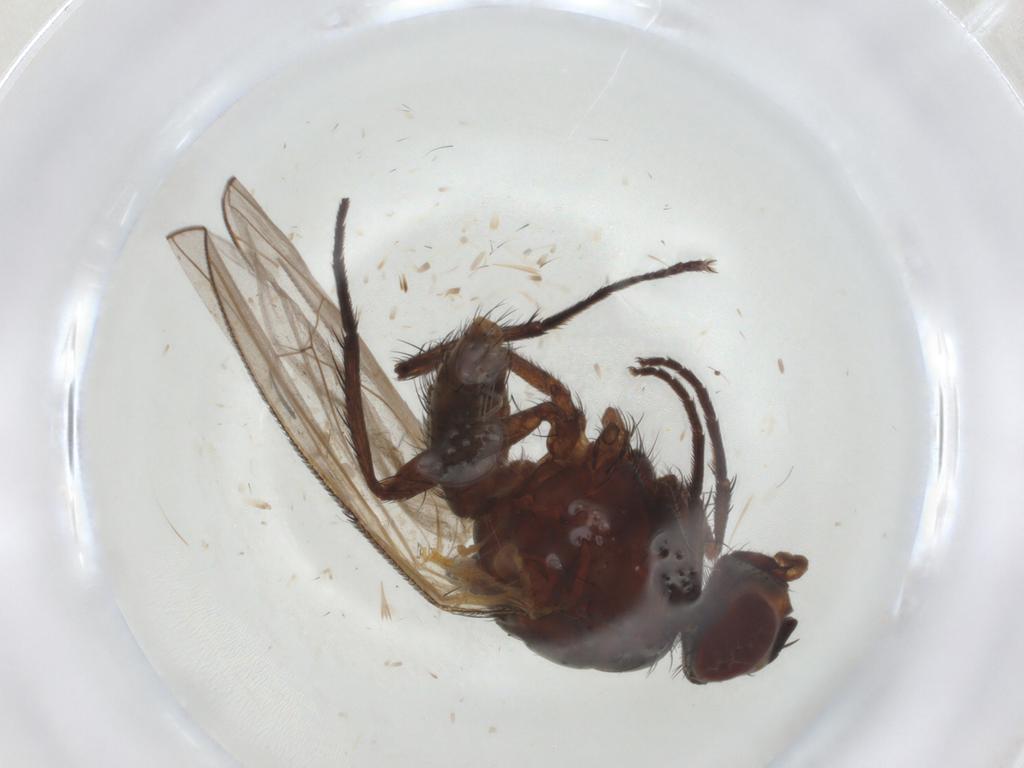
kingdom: Animalia
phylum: Arthropoda
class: Insecta
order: Diptera
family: Anthomyiidae
